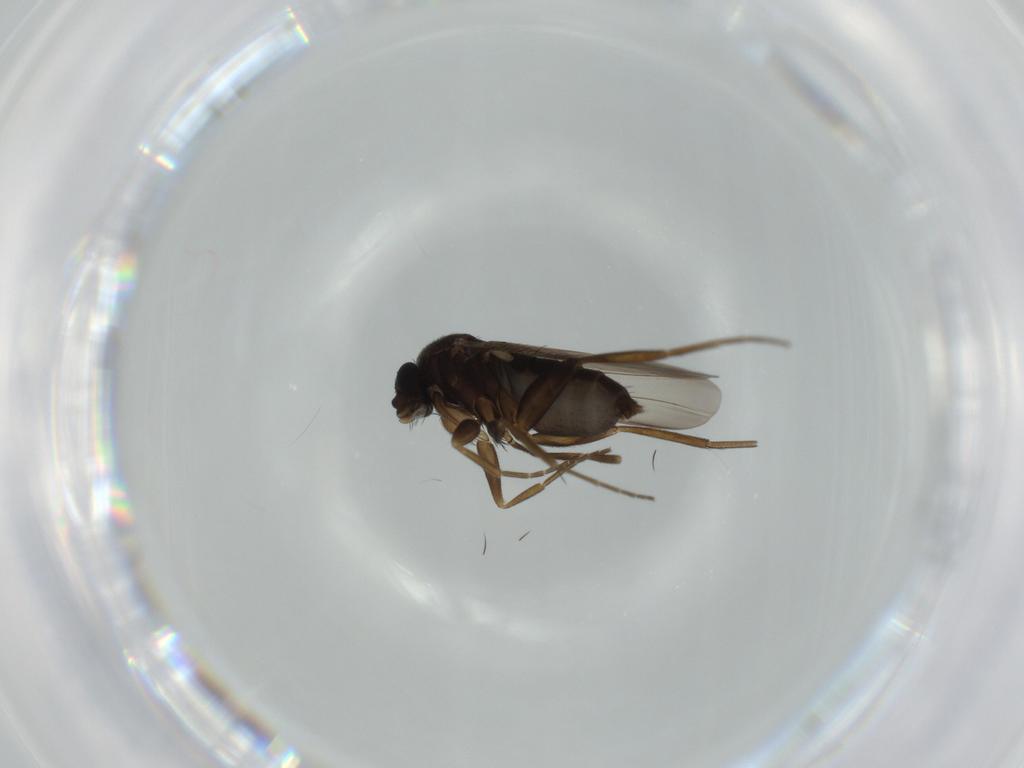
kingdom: Animalia
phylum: Arthropoda
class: Insecta
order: Diptera
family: Phoridae
